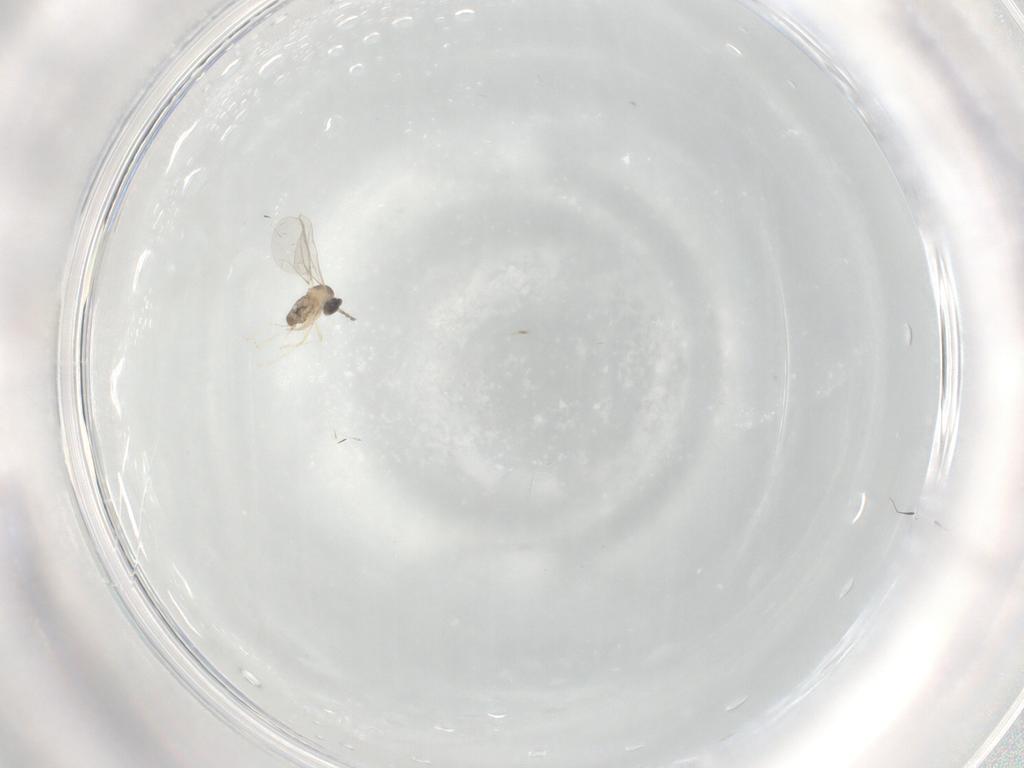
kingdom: Animalia
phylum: Arthropoda
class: Insecta
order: Diptera
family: Cecidomyiidae
